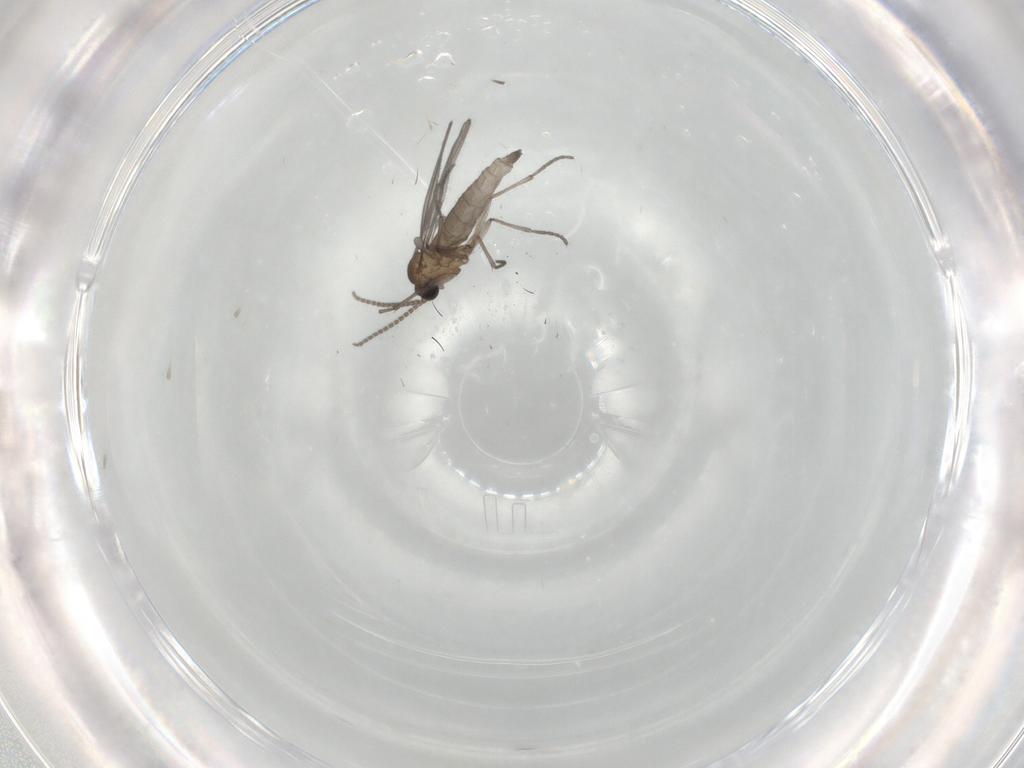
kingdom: Animalia
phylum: Arthropoda
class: Insecta
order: Diptera
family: Sciaridae
